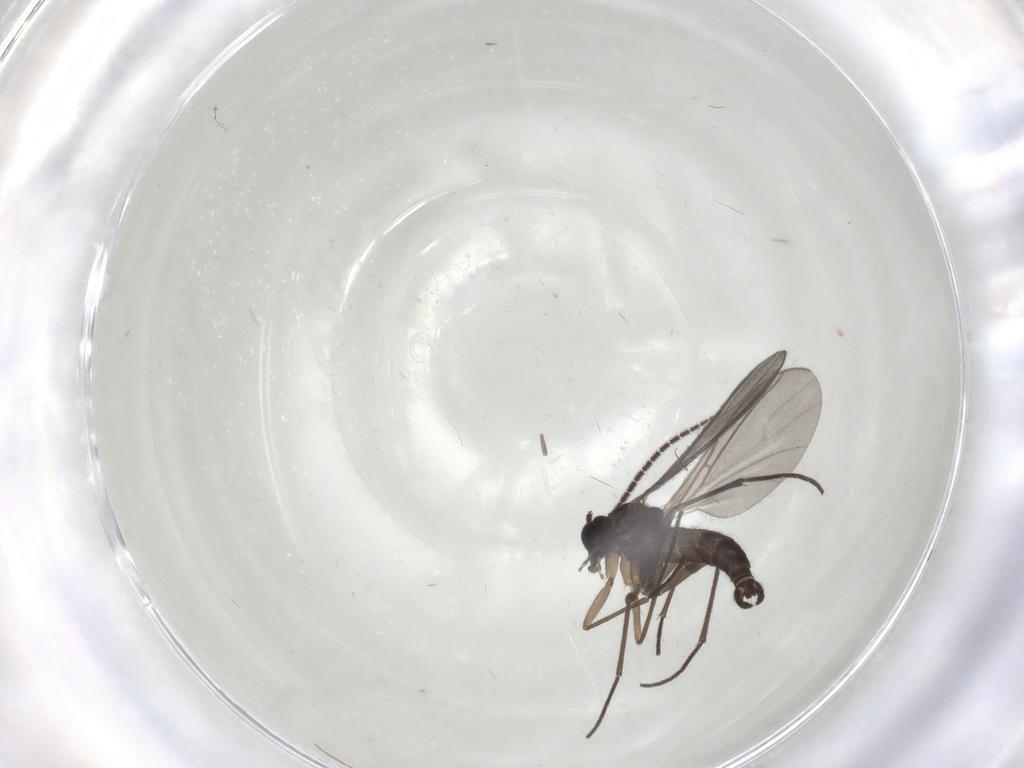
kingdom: Animalia
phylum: Arthropoda
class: Insecta
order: Diptera
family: Chironomidae
